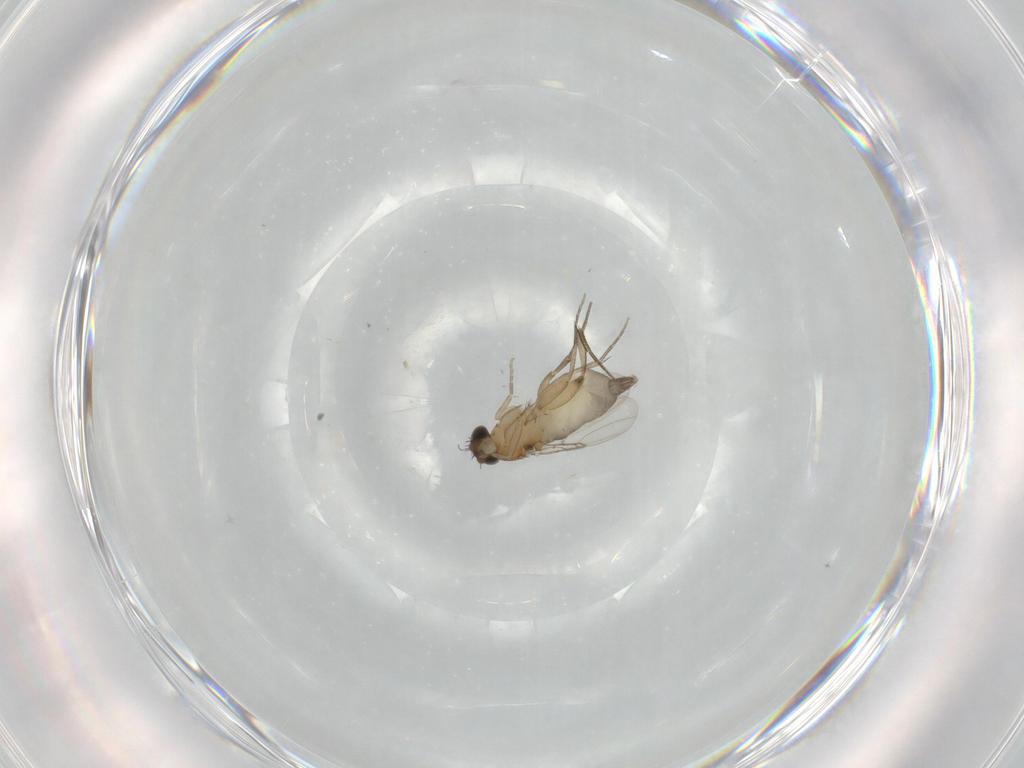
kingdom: Animalia
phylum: Arthropoda
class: Insecta
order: Diptera
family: Phoridae
